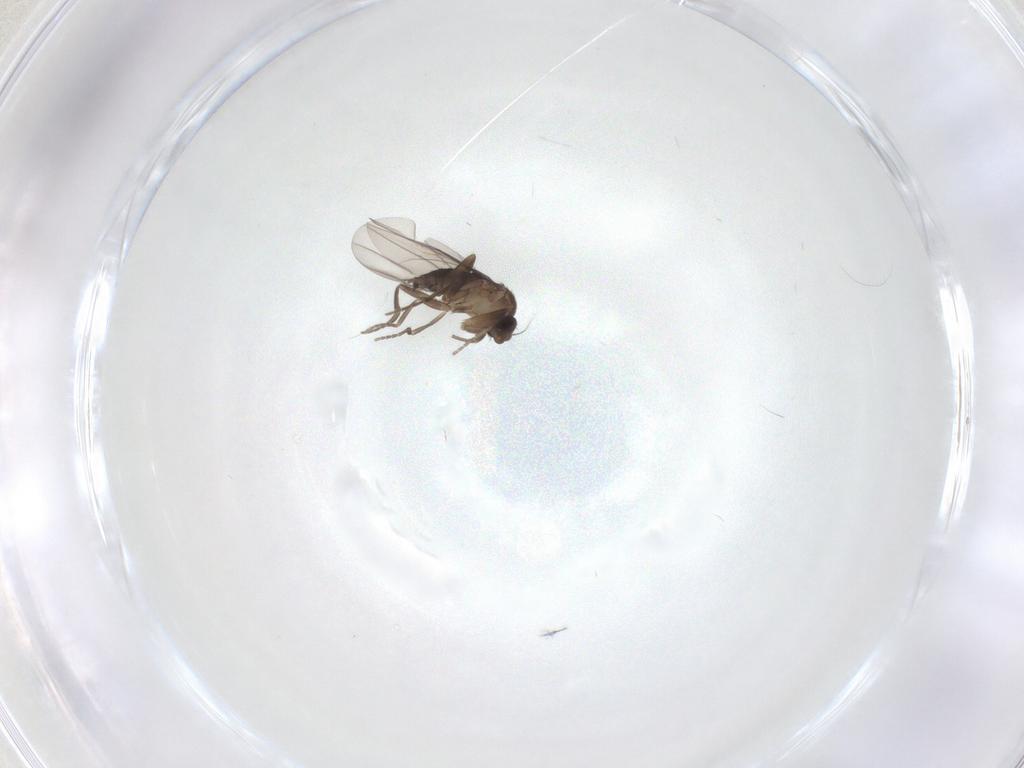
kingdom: Animalia
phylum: Arthropoda
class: Insecta
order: Diptera
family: Phoridae
